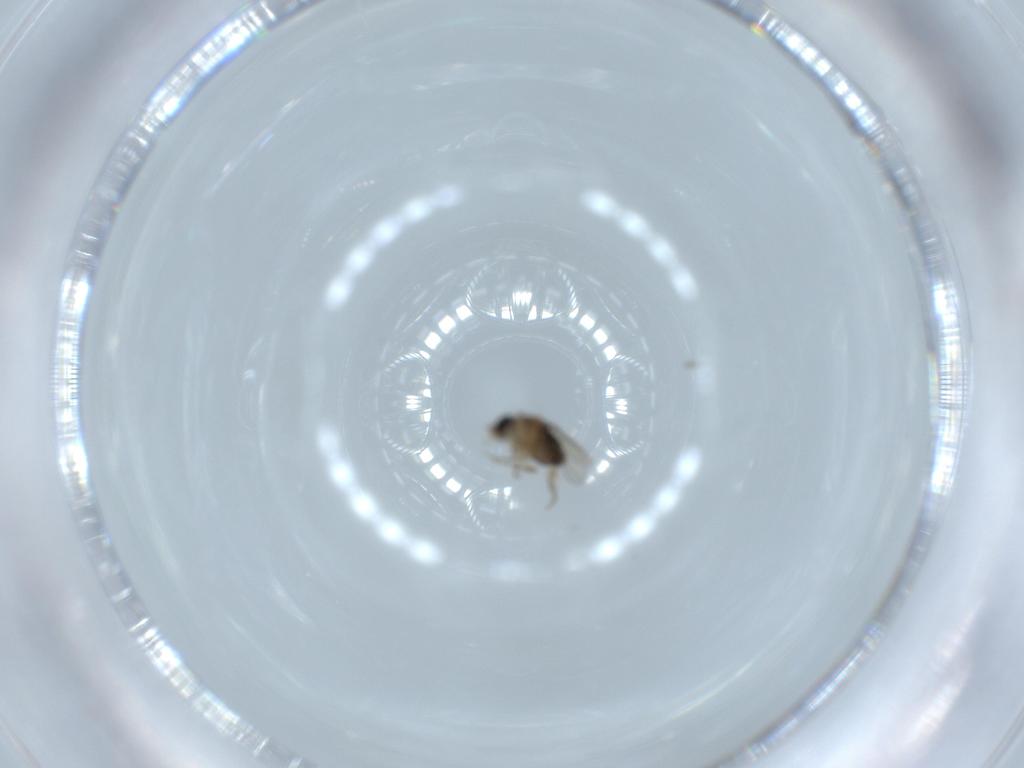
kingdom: Animalia
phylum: Arthropoda
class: Insecta
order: Diptera
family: Phoridae
